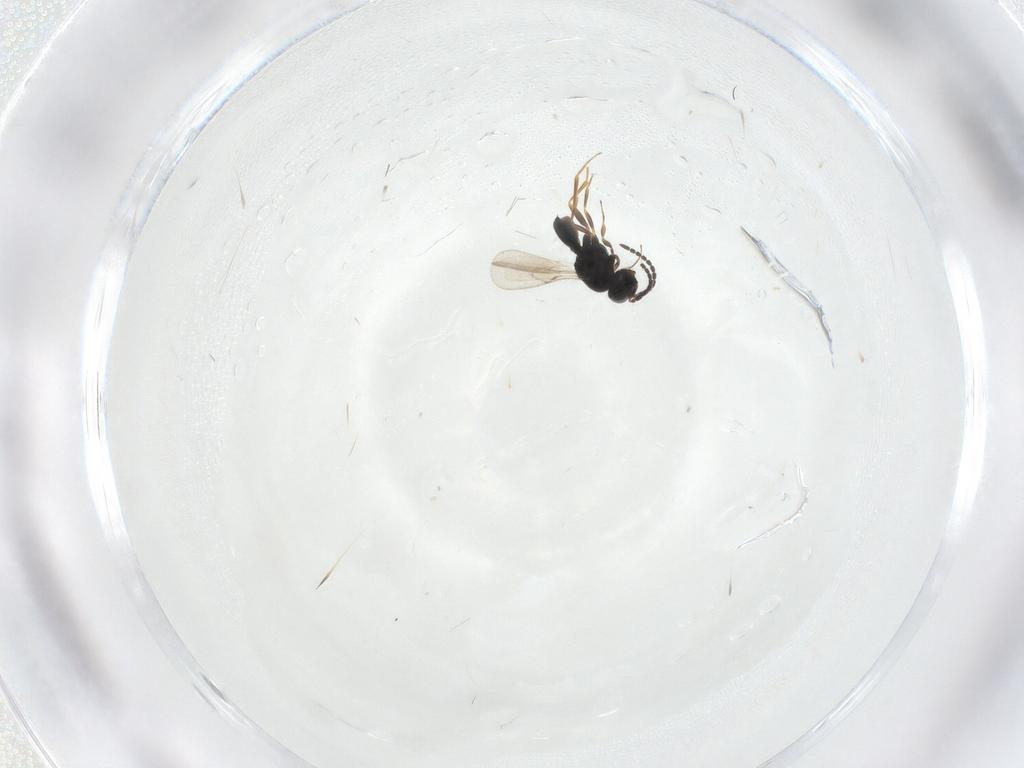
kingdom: Animalia
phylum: Arthropoda
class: Insecta
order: Hymenoptera
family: Scelionidae
